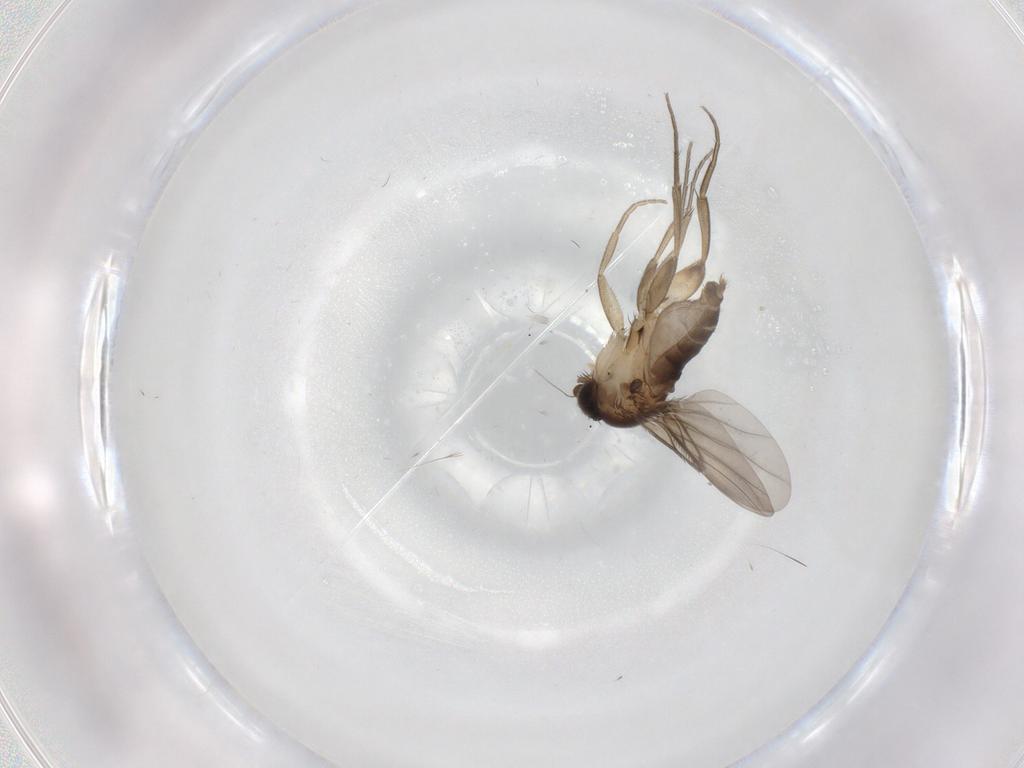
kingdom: Animalia
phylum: Arthropoda
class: Insecta
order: Diptera
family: Phoridae
